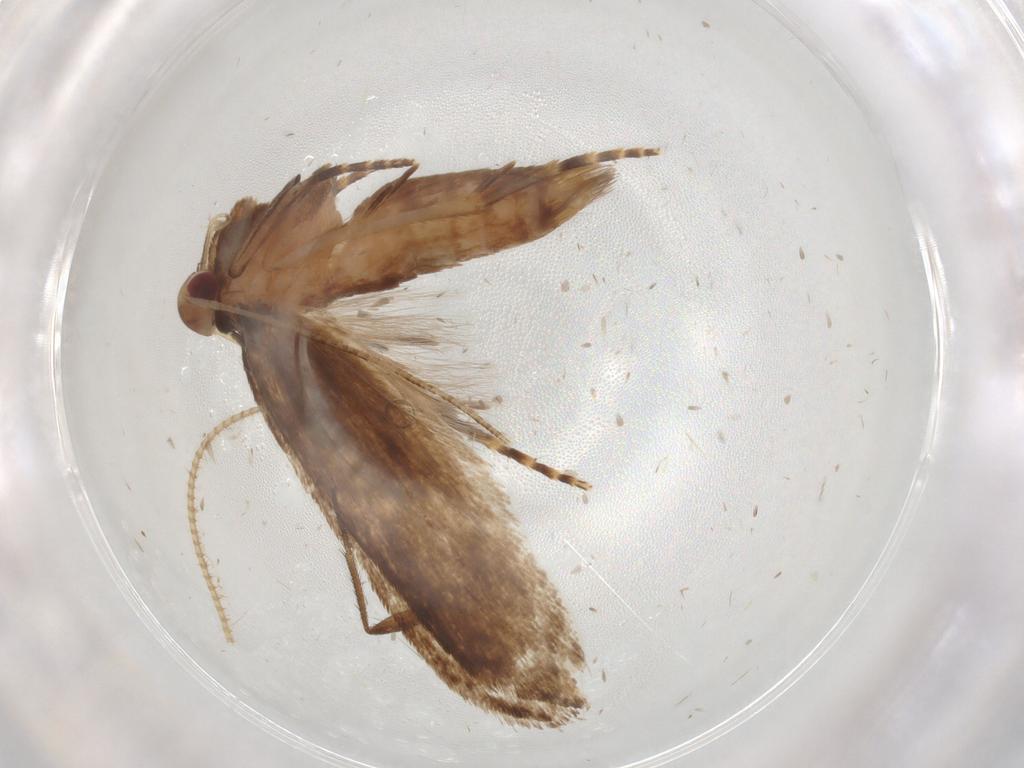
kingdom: Animalia
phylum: Arthropoda
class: Insecta
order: Lepidoptera
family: Gelechiidae
